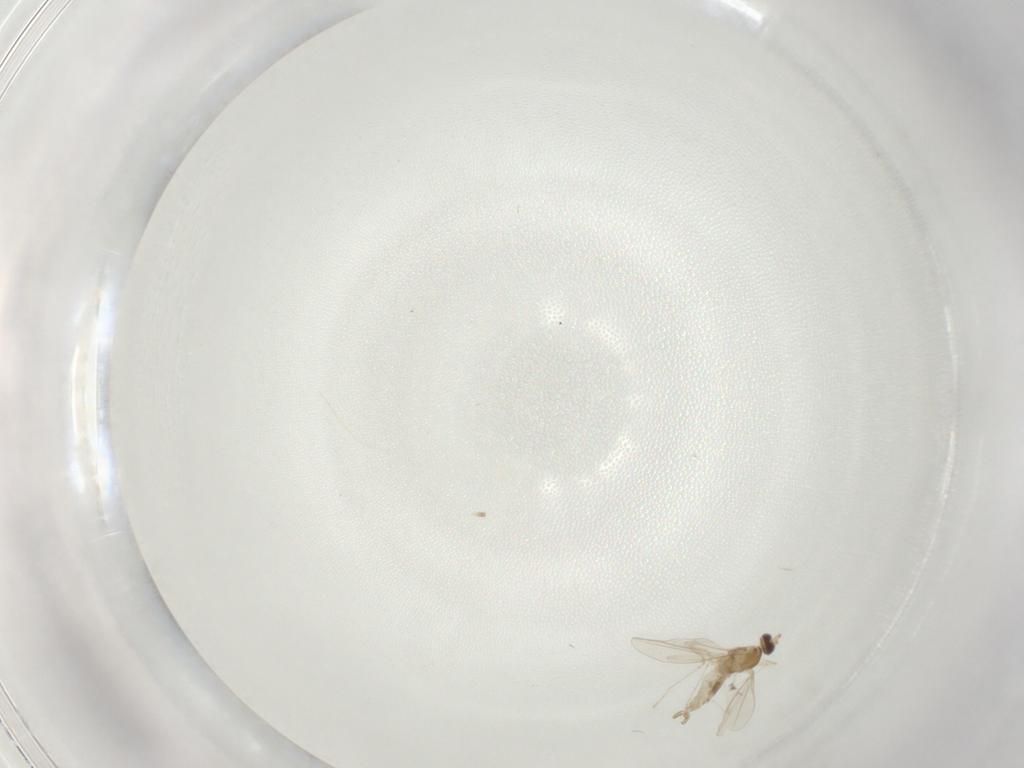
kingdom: Animalia
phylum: Arthropoda
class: Insecta
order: Diptera
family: Cecidomyiidae
